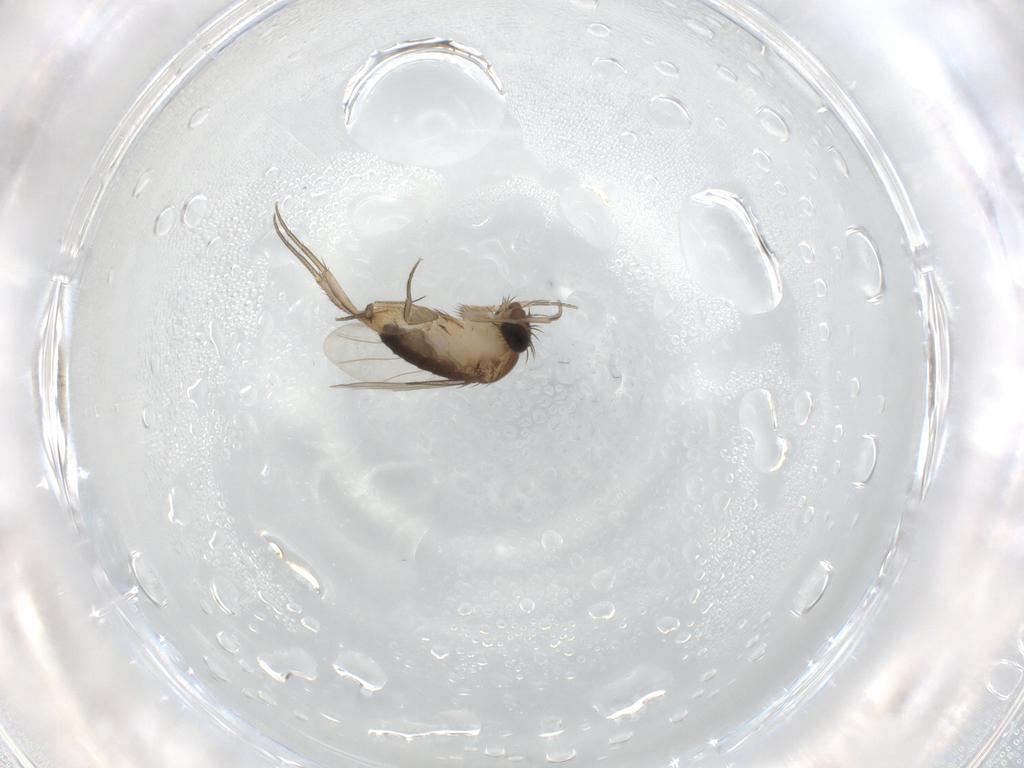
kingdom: Animalia
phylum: Arthropoda
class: Insecta
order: Diptera
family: Phoridae
